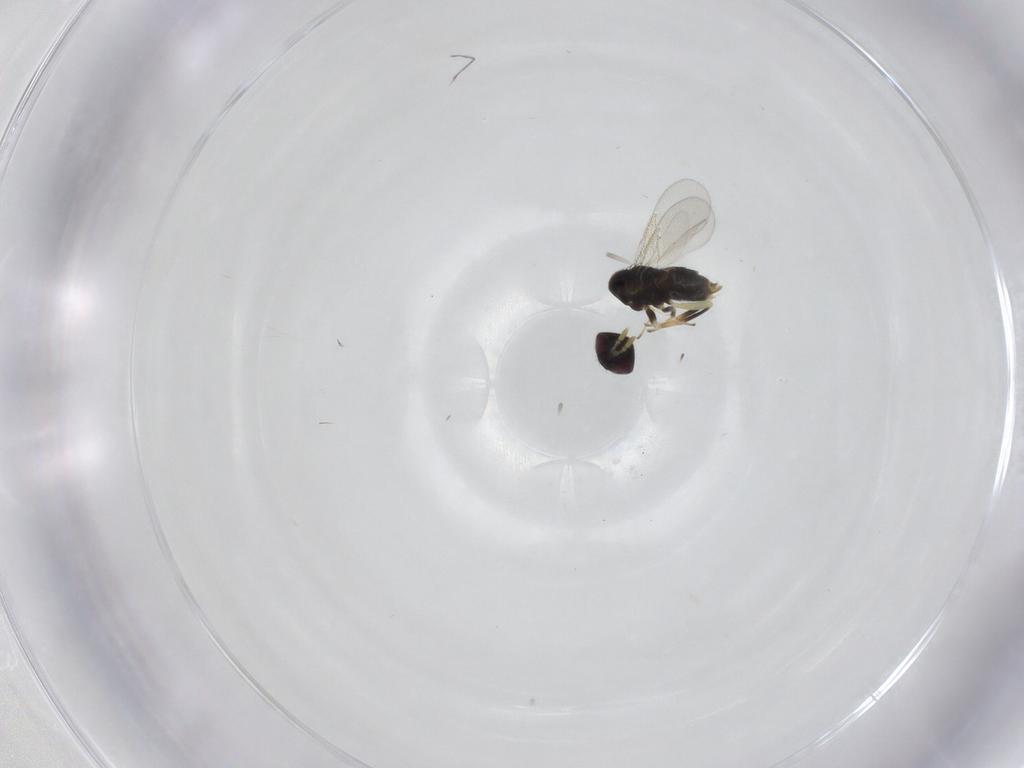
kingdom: Animalia
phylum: Arthropoda
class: Insecta
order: Hymenoptera
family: Aphelinidae
